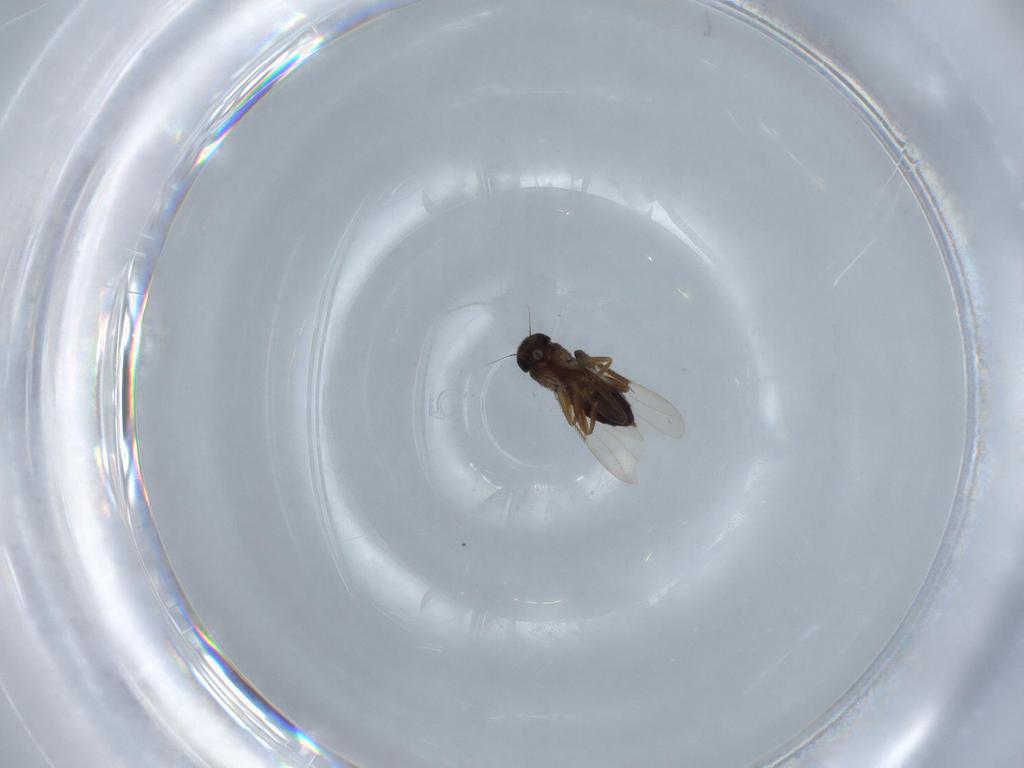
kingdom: Animalia
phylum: Arthropoda
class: Insecta
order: Diptera
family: Phoridae
